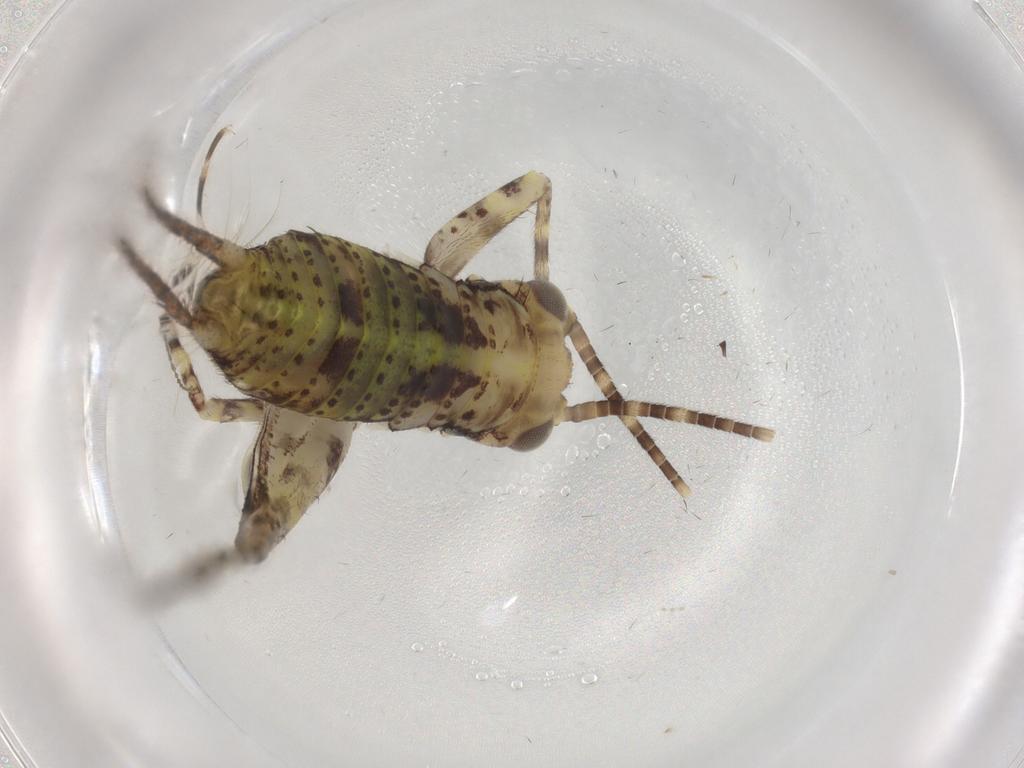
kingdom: Animalia
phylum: Arthropoda
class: Insecta
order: Orthoptera
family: Gryllidae
